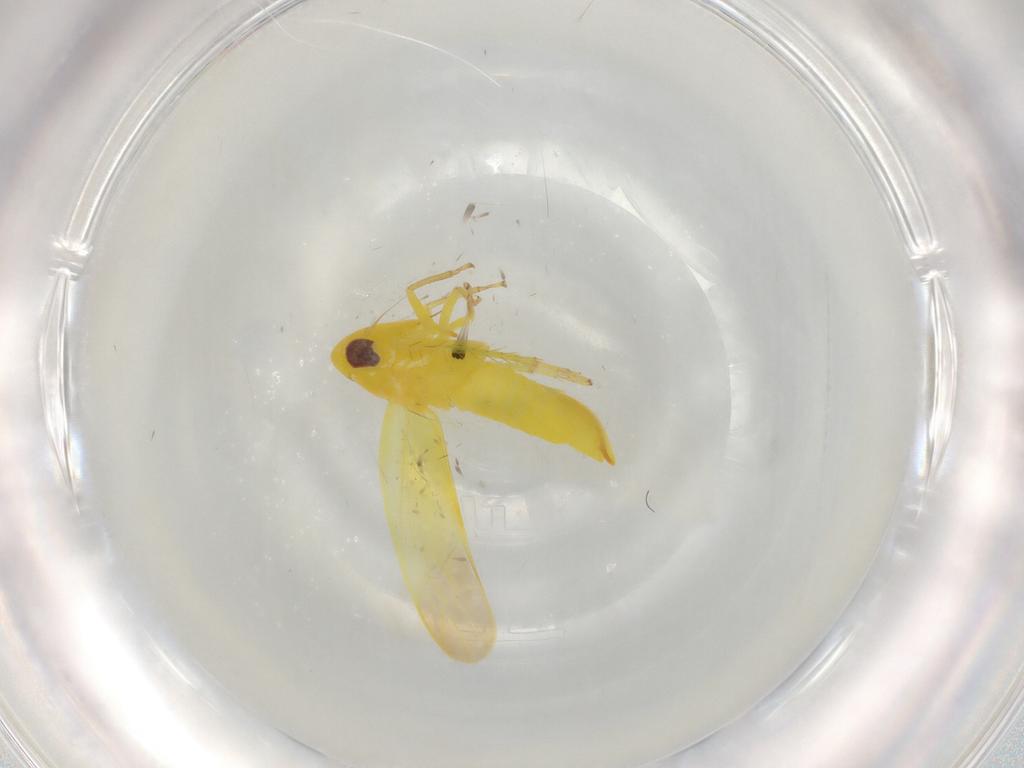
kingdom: Animalia
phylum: Arthropoda
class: Insecta
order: Hemiptera
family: Cicadellidae
